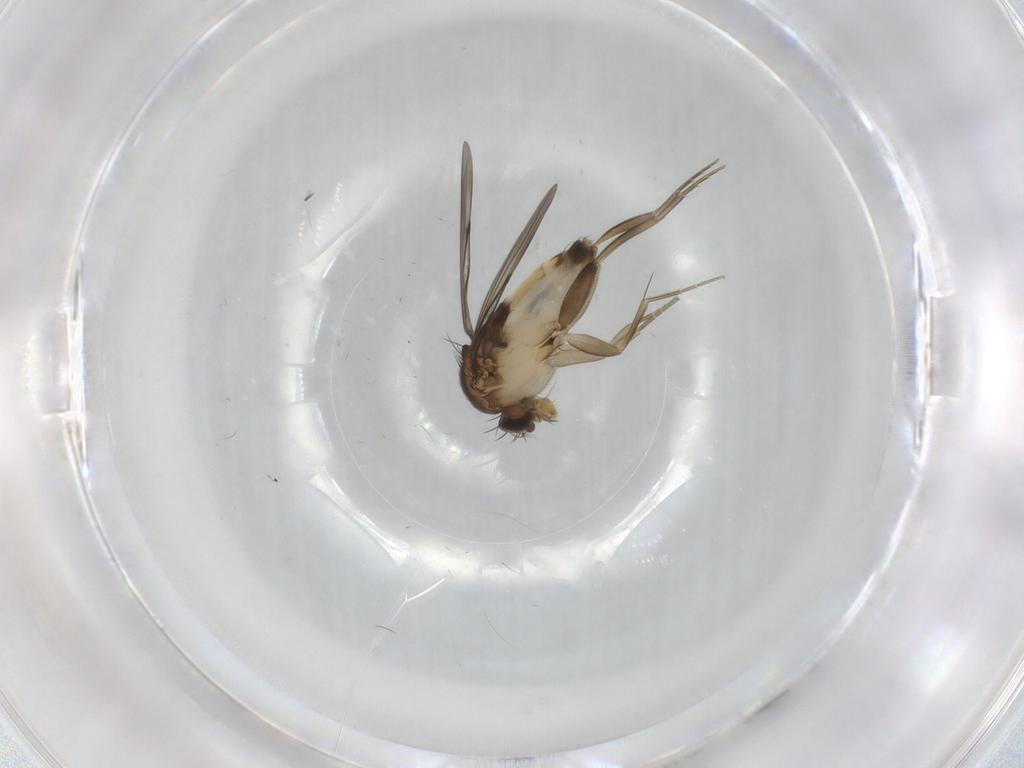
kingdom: Animalia
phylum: Arthropoda
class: Insecta
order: Diptera
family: Phoridae
